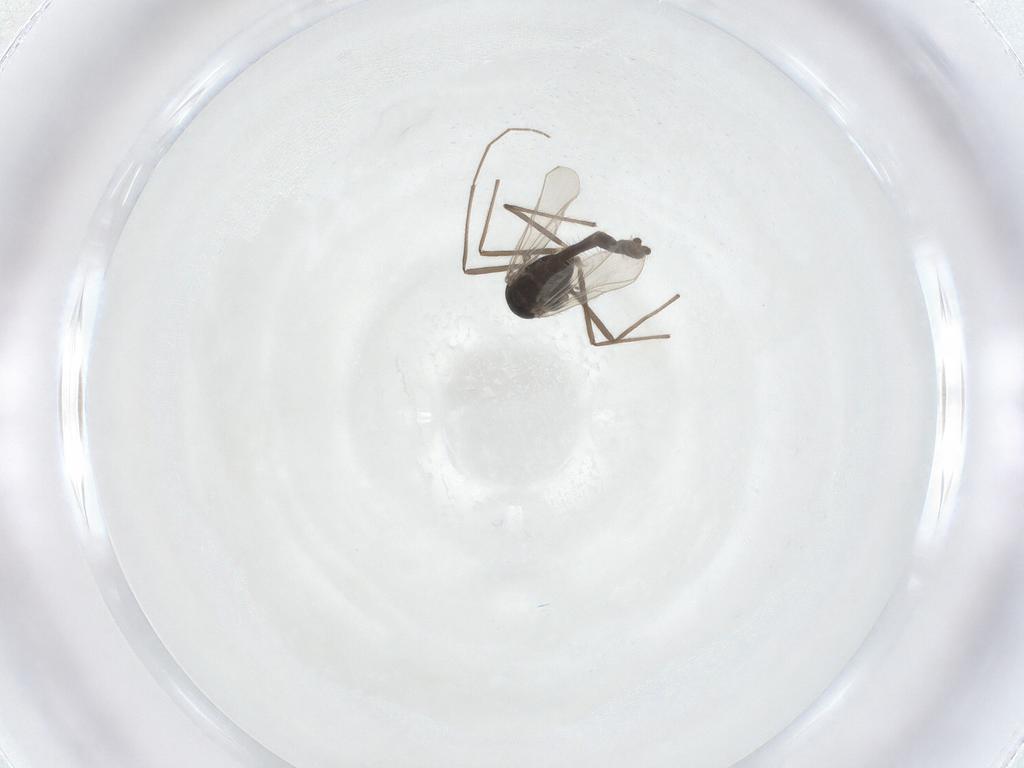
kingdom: Animalia
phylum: Arthropoda
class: Insecta
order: Diptera
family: Chironomidae
